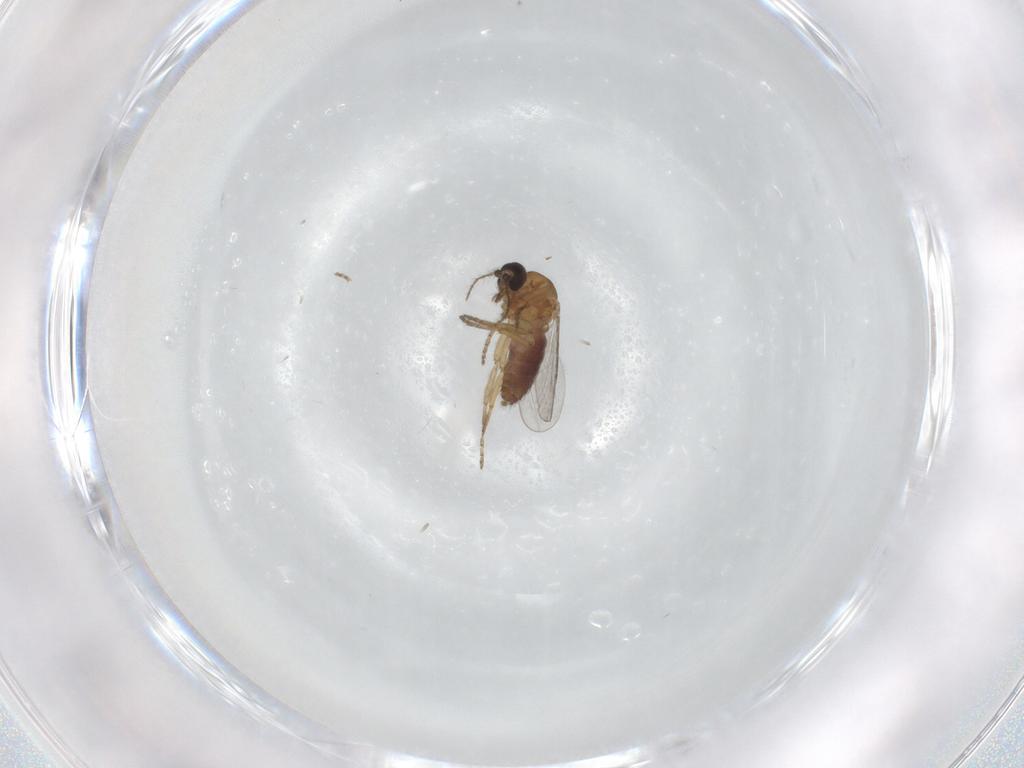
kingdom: Animalia
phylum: Arthropoda
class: Insecta
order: Diptera
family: Ceratopogonidae
